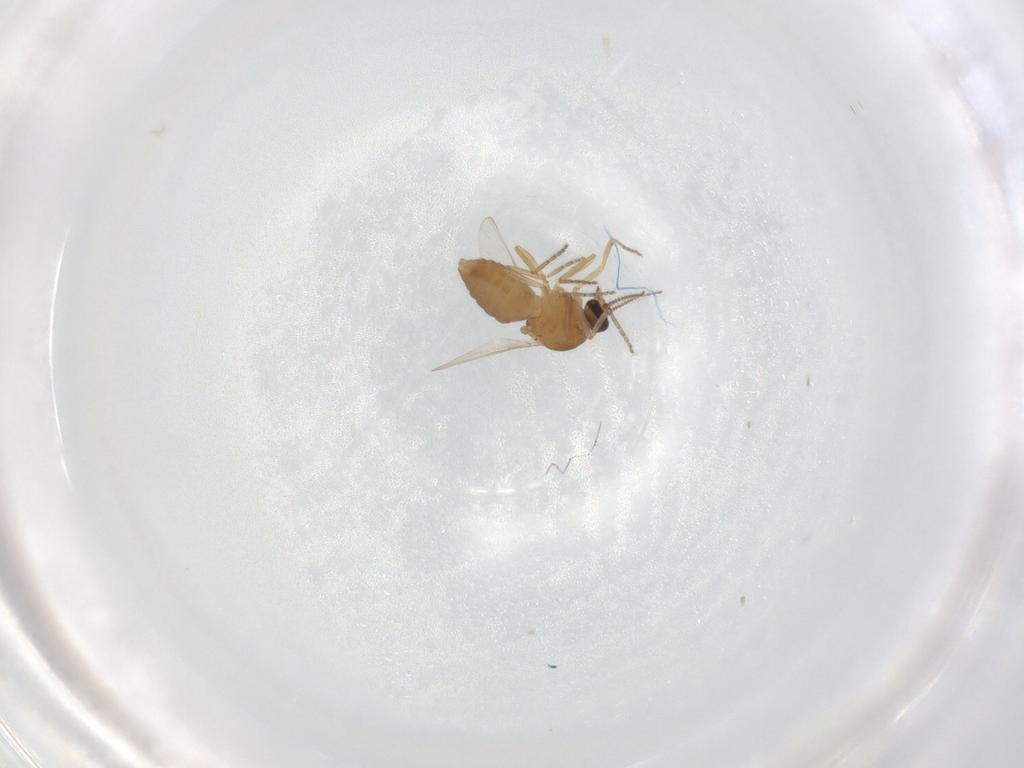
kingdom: Animalia
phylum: Arthropoda
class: Insecta
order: Diptera
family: Ceratopogonidae
